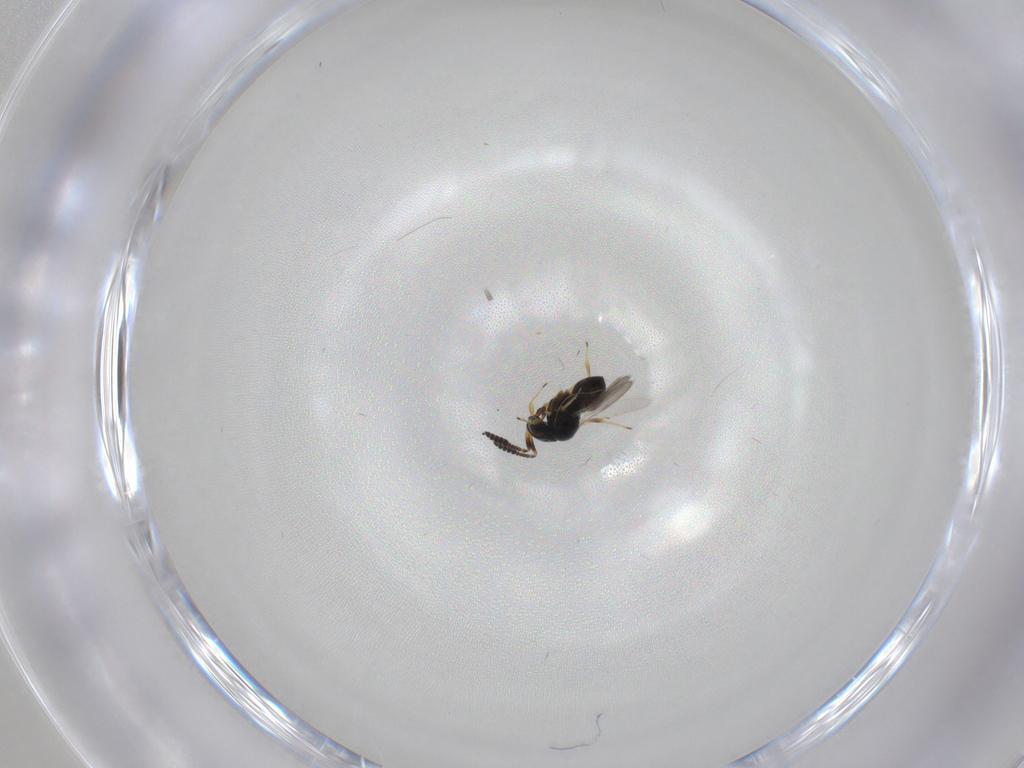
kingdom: Animalia
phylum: Arthropoda
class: Insecta
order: Hymenoptera
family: Scelionidae
